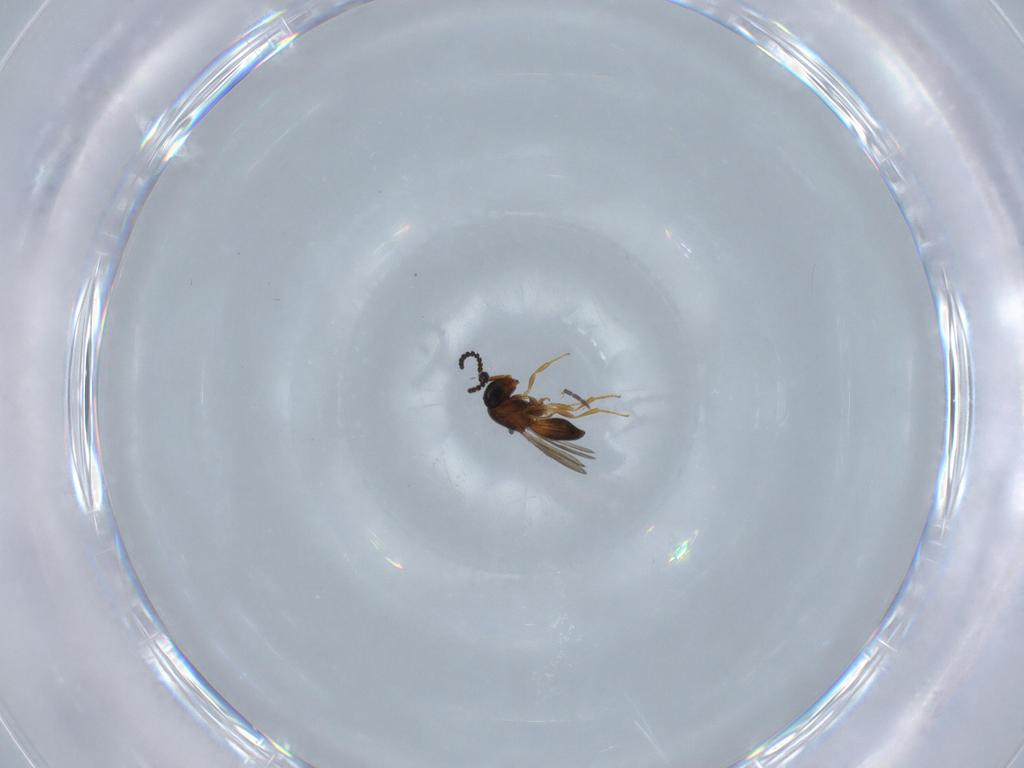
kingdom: Animalia
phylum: Arthropoda
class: Insecta
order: Hymenoptera
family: Scelionidae
